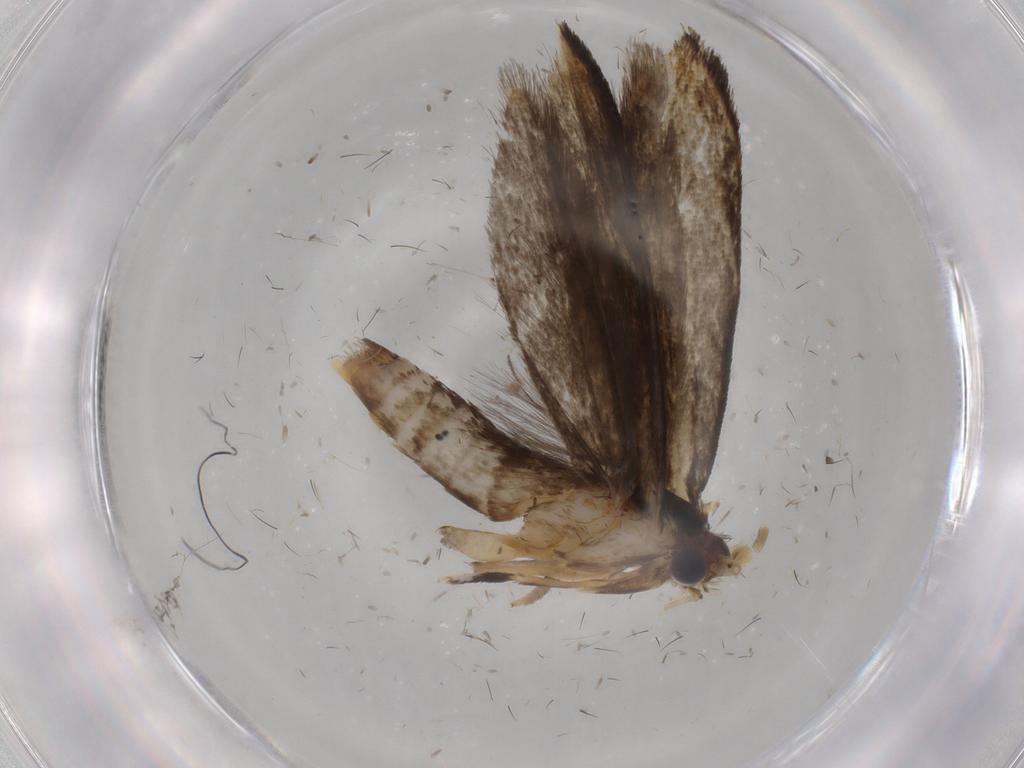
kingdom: Animalia
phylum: Arthropoda
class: Insecta
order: Lepidoptera
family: Tineidae
